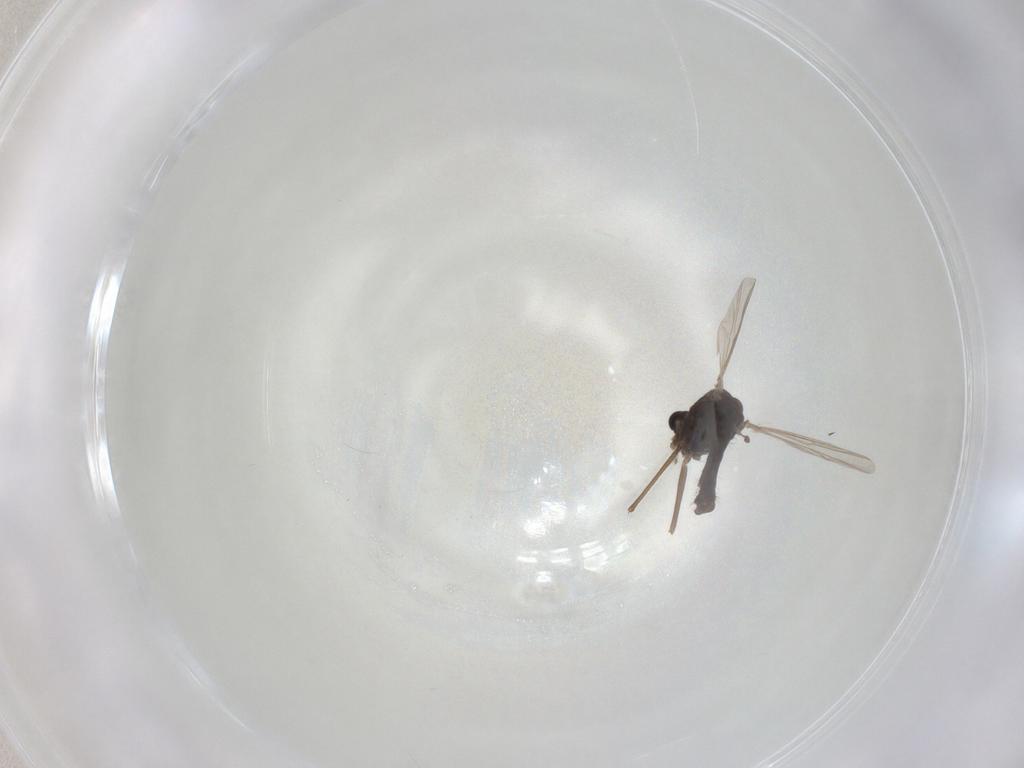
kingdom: Animalia
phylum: Arthropoda
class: Insecta
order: Diptera
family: Chironomidae
